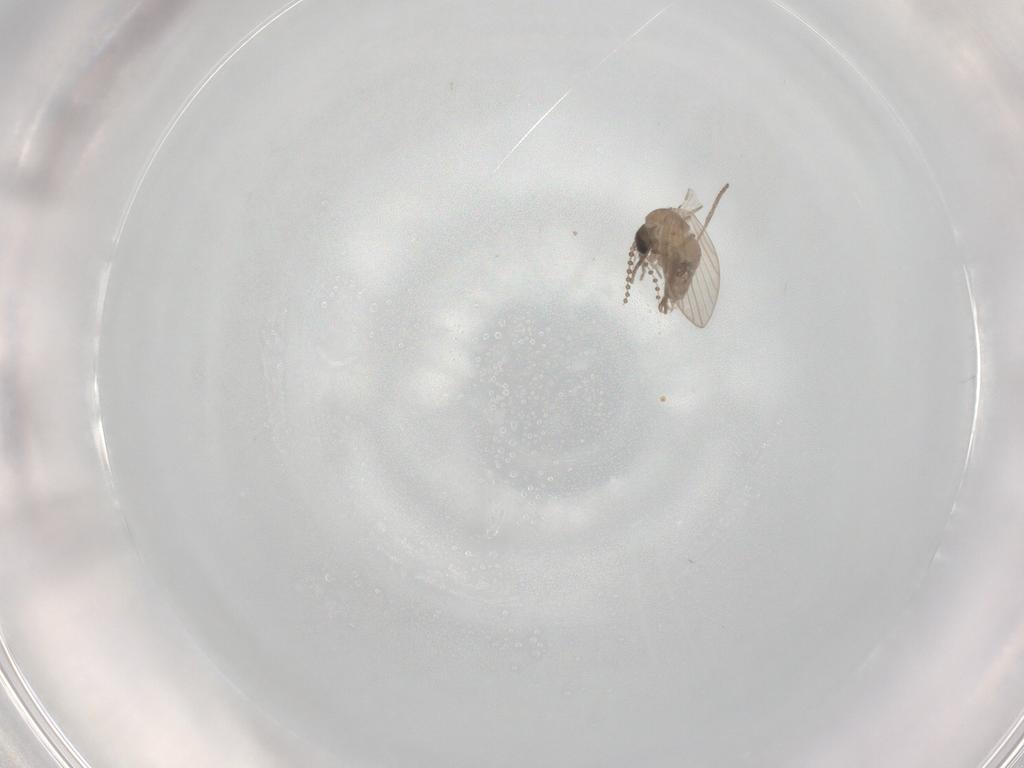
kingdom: Animalia
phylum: Arthropoda
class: Insecta
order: Diptera
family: Psychodidae
